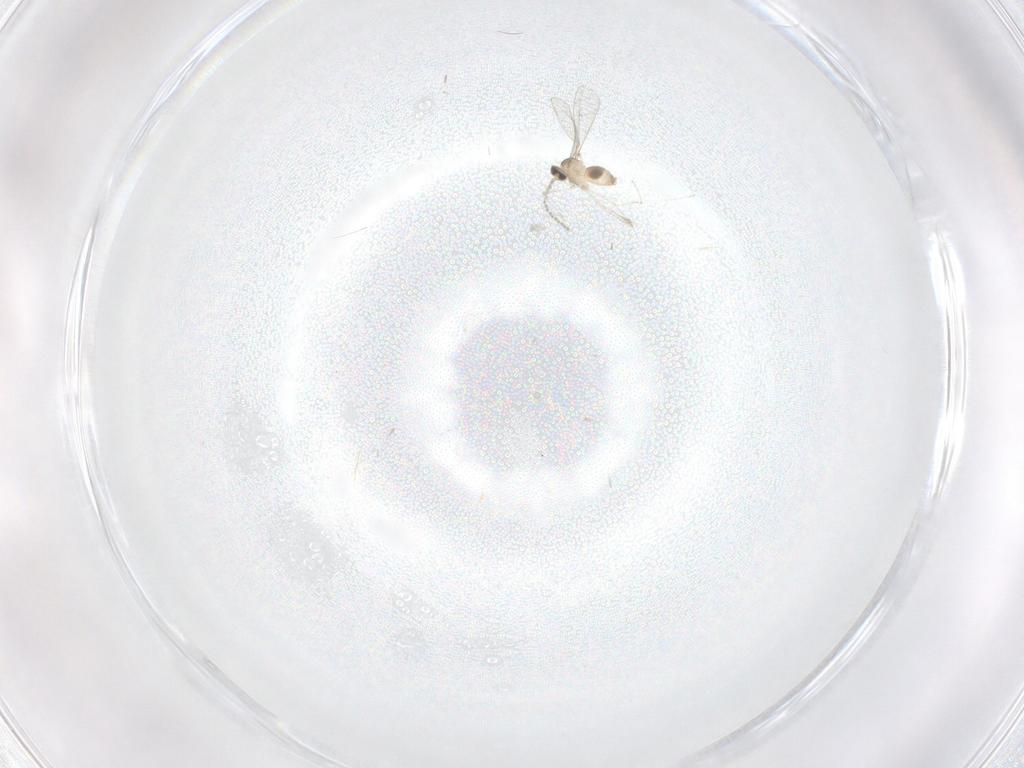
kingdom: Animalia
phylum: Arthropoda
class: Insecta
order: Diptera
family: Cecidomyiidae
